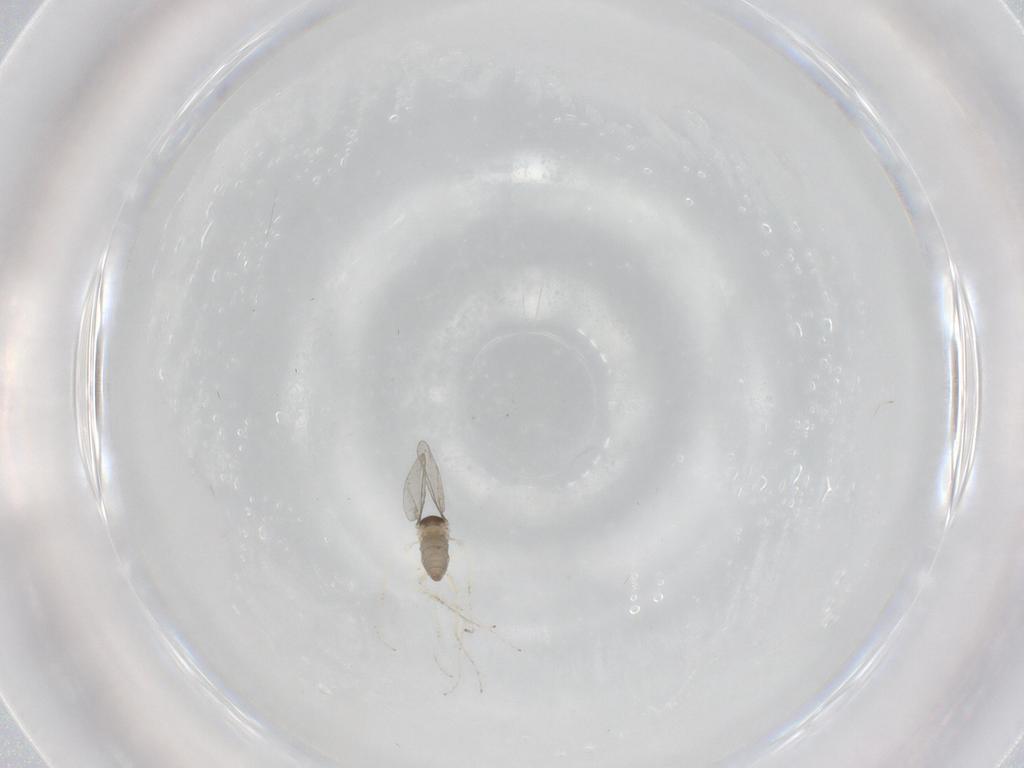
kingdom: Animalia
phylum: Arthropoda
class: Insecta
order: Diptera
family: Cecidomyiidae
